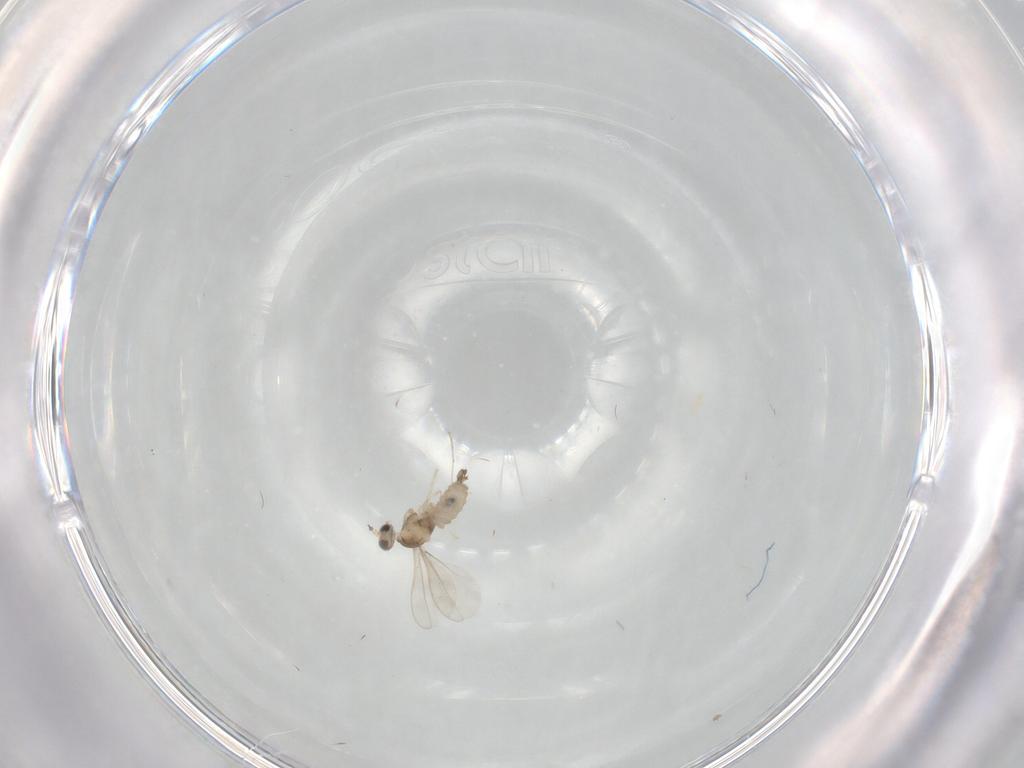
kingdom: Animalia
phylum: Arthropoda
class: Insecta
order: Diptera
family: Cecidomyiidae
